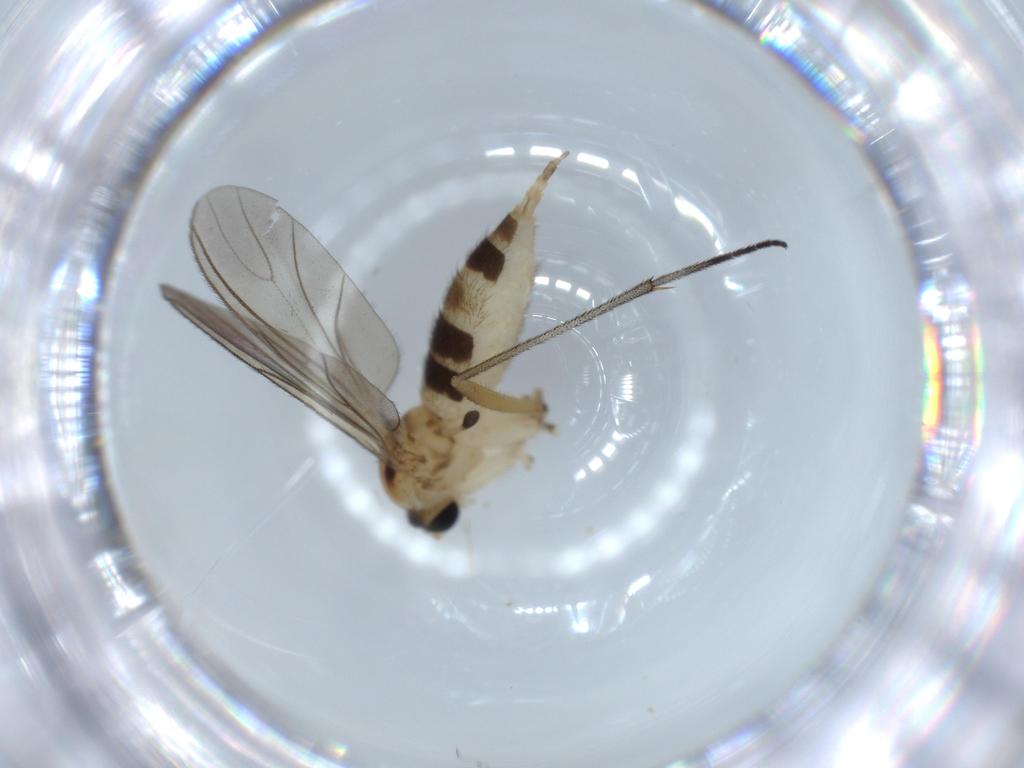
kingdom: Animalia
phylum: Arthropoda
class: Insecta
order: Diptera
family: Sciaridae
